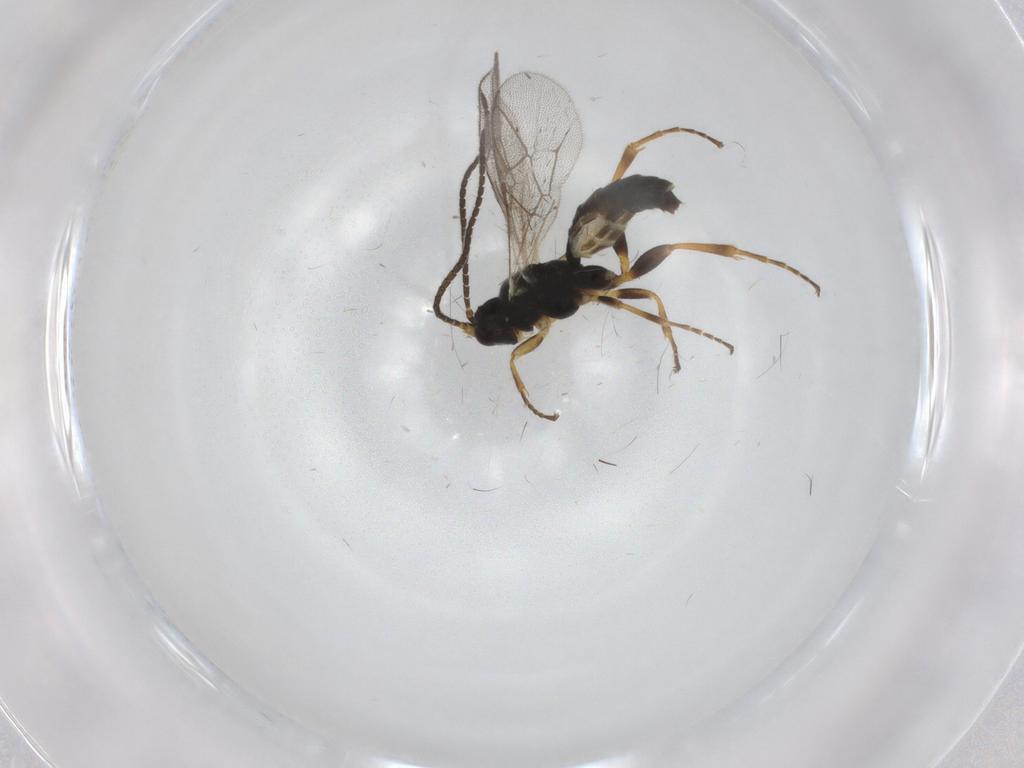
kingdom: Animalia
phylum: Arthropoda
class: Insecta
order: Hymenoptera
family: Ichneumonidae
